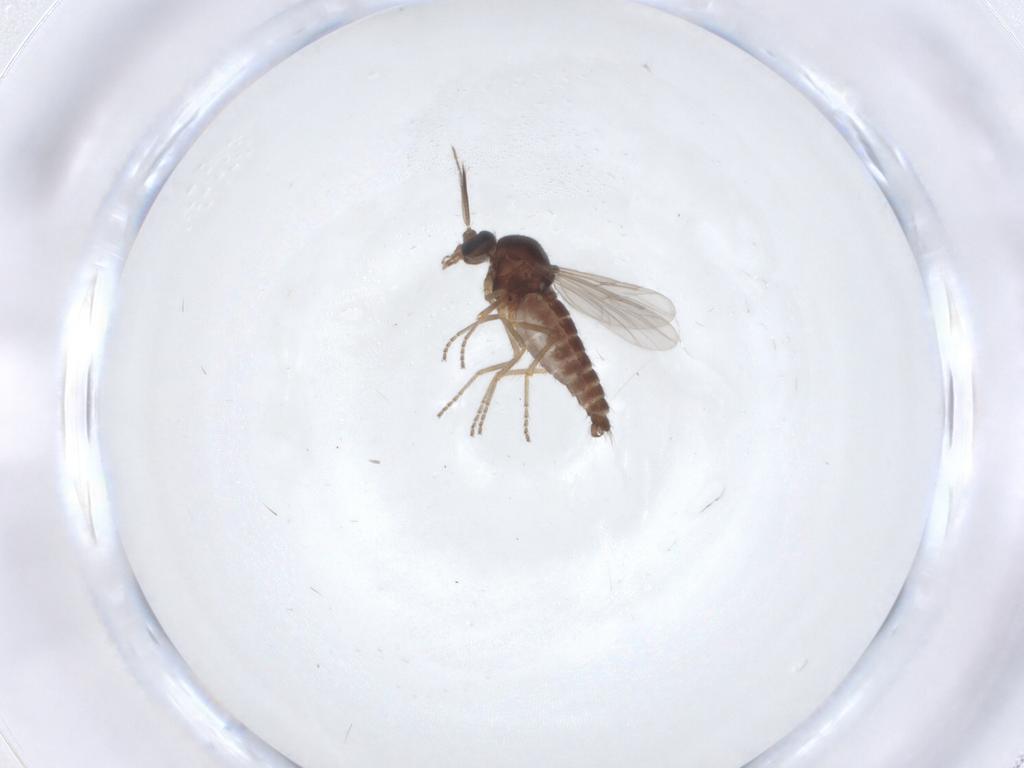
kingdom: Animalia
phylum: Arthropoda
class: Insecta
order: Diptera
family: Ceratopogonidae
